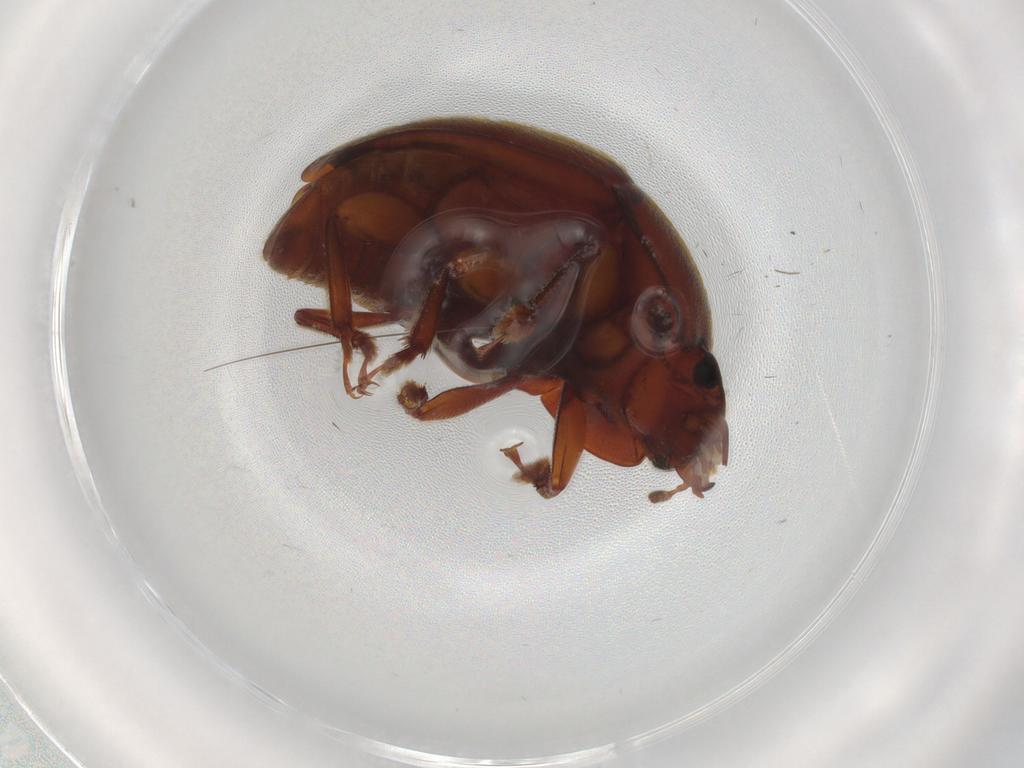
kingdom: Animalia
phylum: Arthropoda
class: Insecta
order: Coleoptera
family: Nitidulidae
